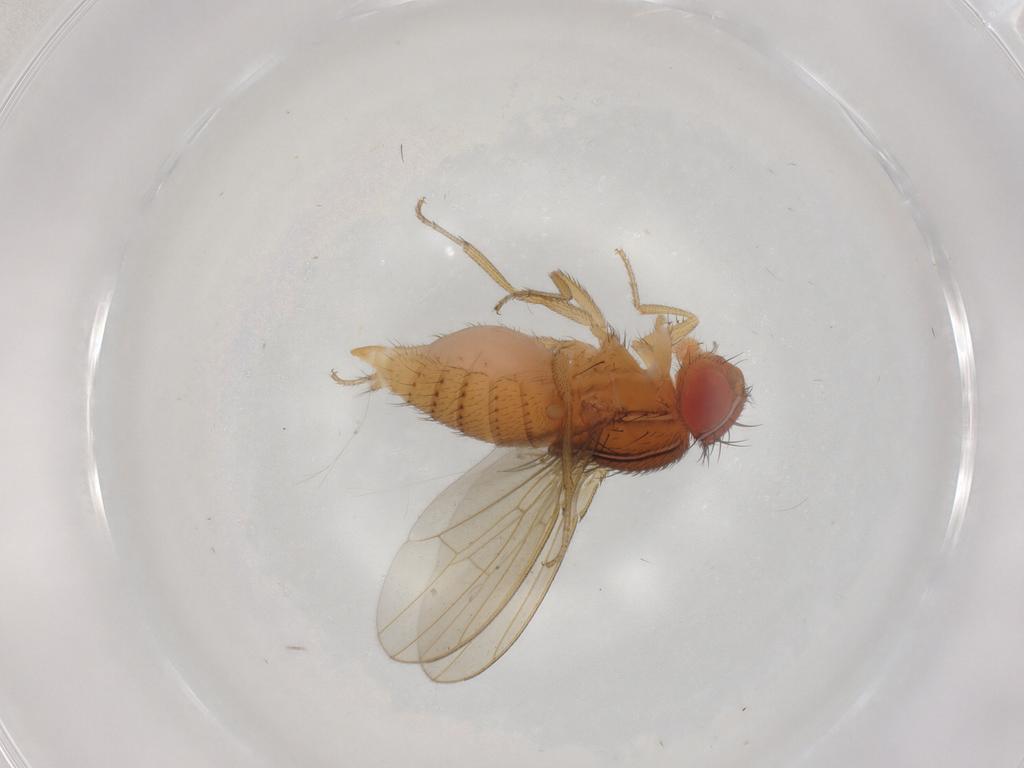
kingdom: Animalia
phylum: Arthropoda
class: Insecta
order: Diptera
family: Drosophilidae
